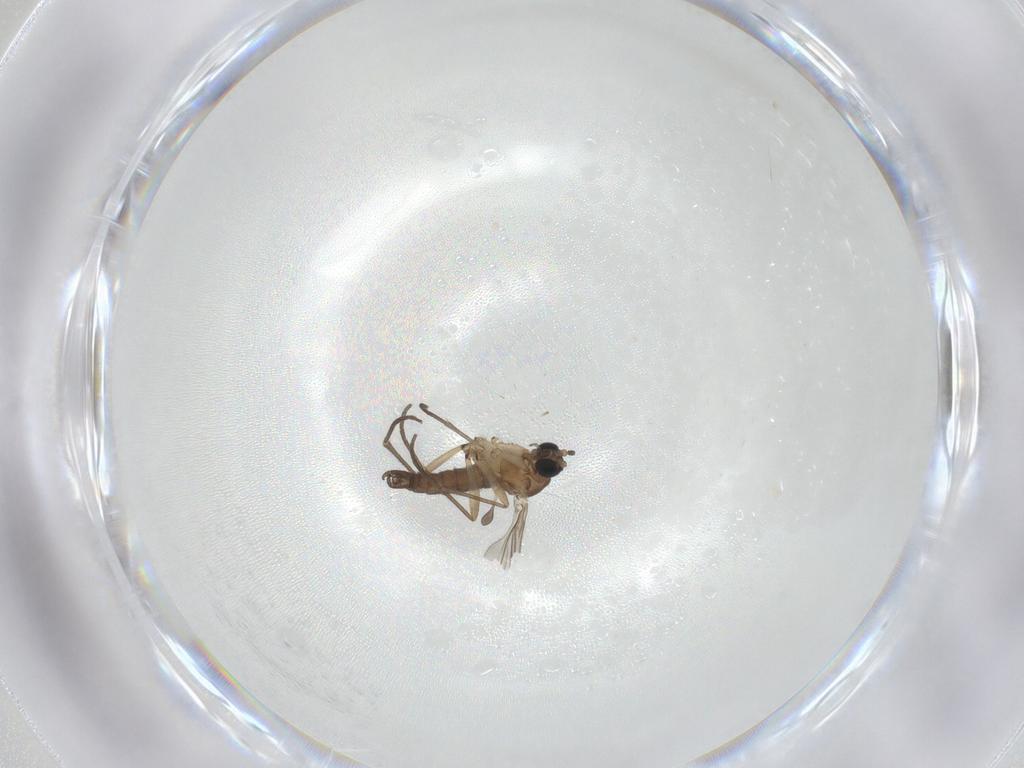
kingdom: Animalia
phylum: Arthropoda
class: Insecta
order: Diptera
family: Sciaridae
